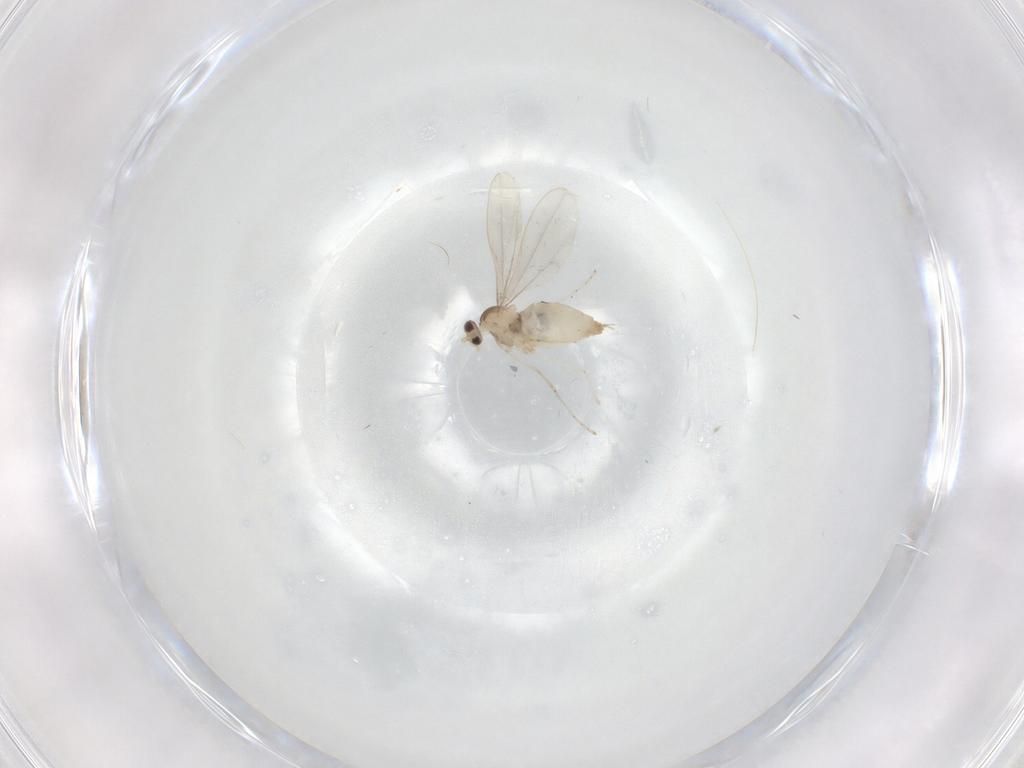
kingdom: Animalia
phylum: Arthropoda
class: Insecta
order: Diptera
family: Cecidomyiidae
